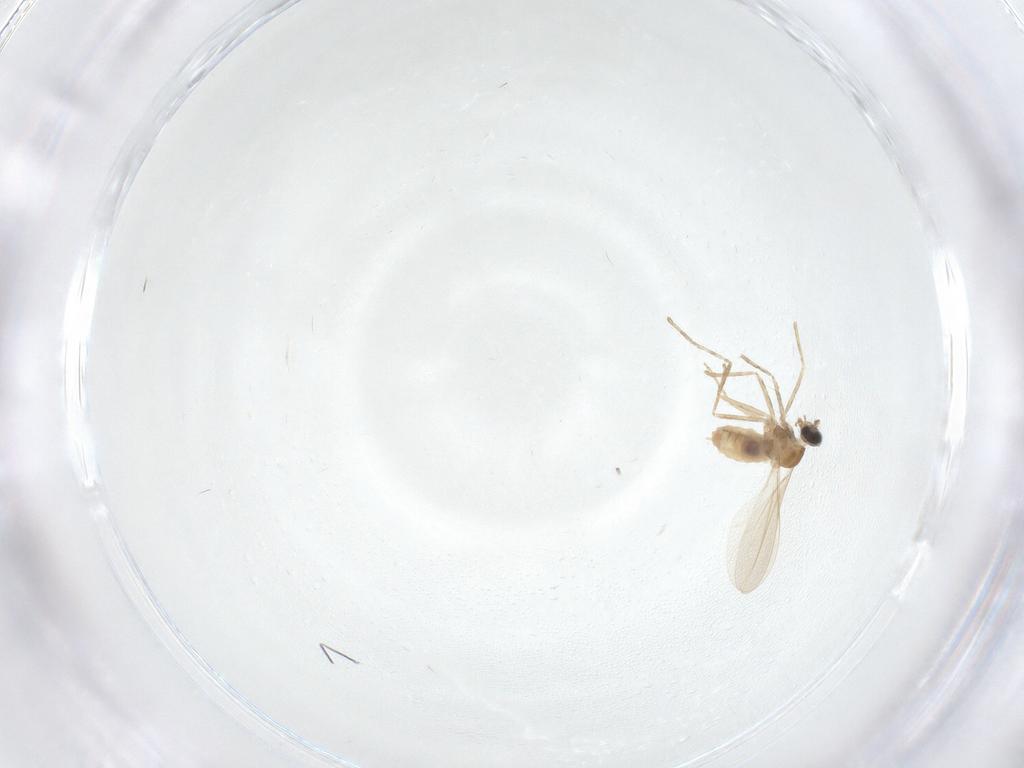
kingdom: Animalia
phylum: Arthropoda
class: Insecta
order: Diptera
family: Cecidomyiidae
